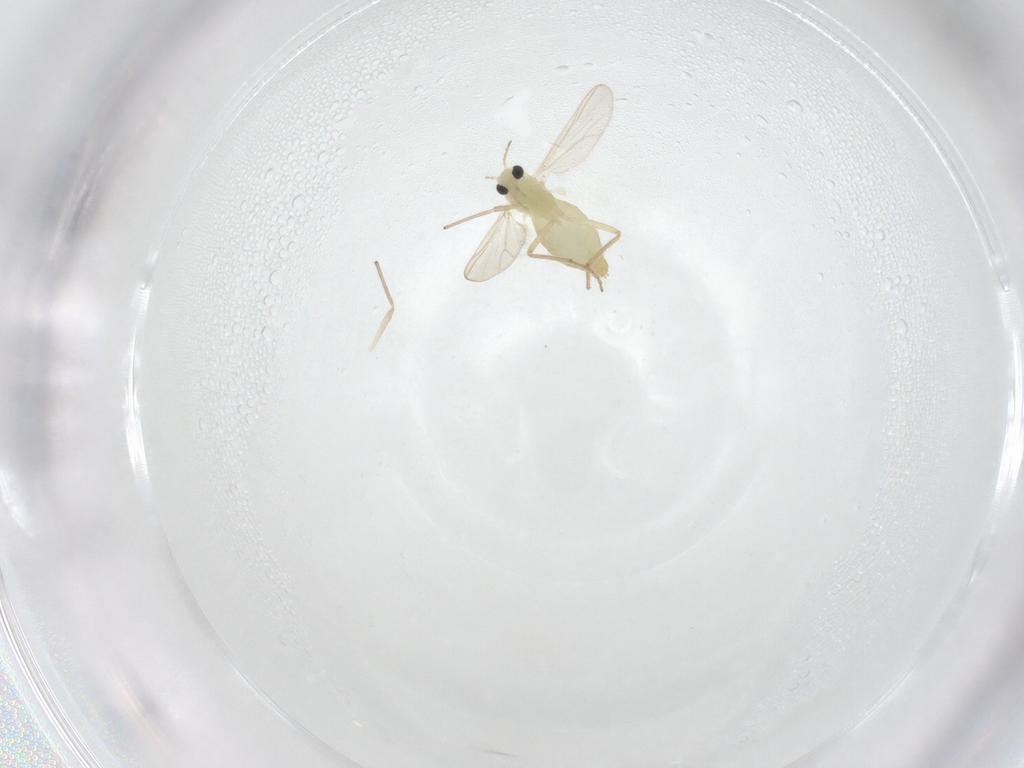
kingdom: Animalia
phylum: Arthropoda
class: Insecta
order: Diptera
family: Chironomidae
